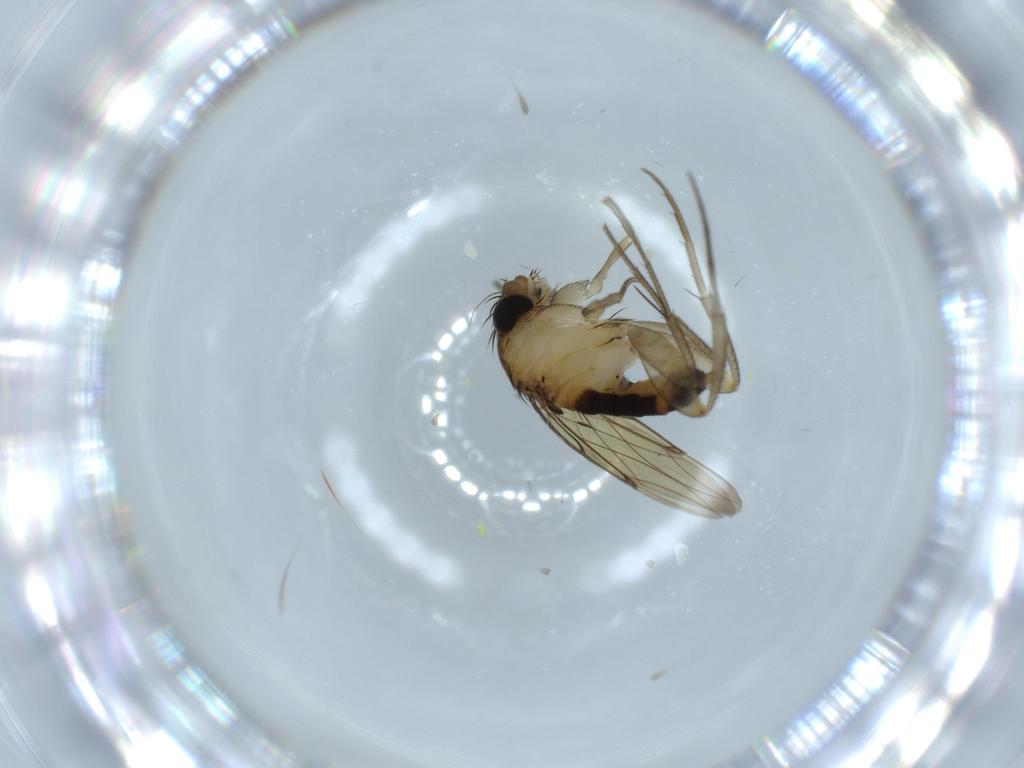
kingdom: Animalia
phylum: Arthropoda
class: Insecta
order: Diptera
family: Phoridae
